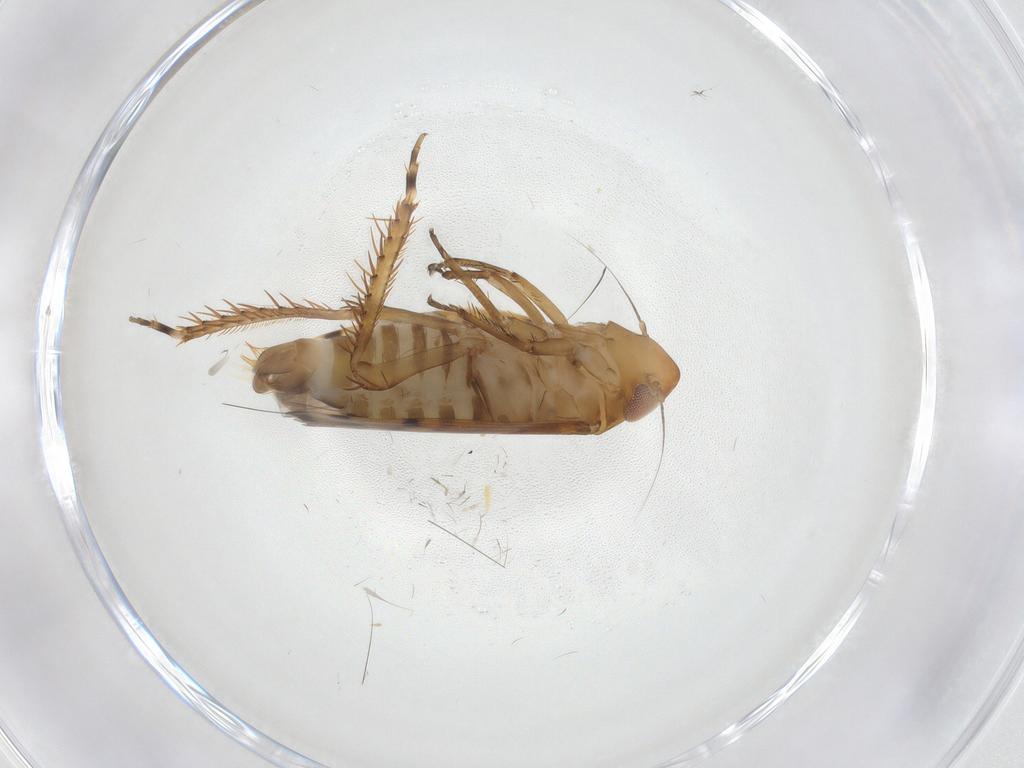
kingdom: Animalia
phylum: Arthropoda
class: Insecta
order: Hemiptera
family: Cixiidae
